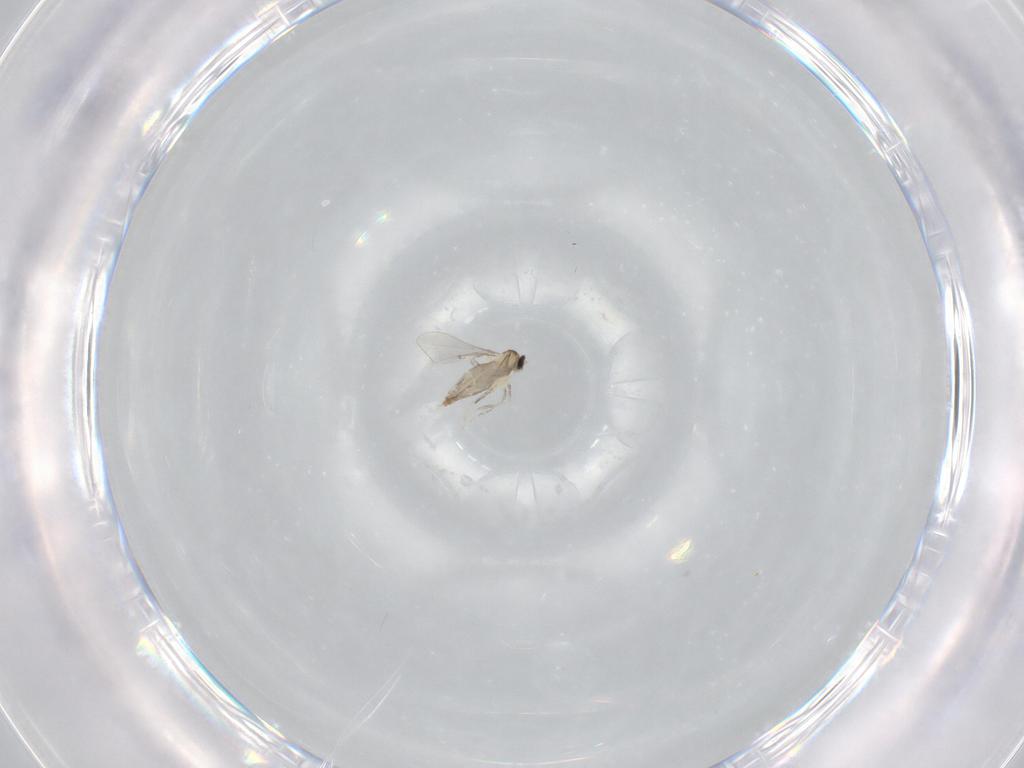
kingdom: Animalia
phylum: Arthropoda
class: Insecta
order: Diptera
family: Cecidomyiidae
